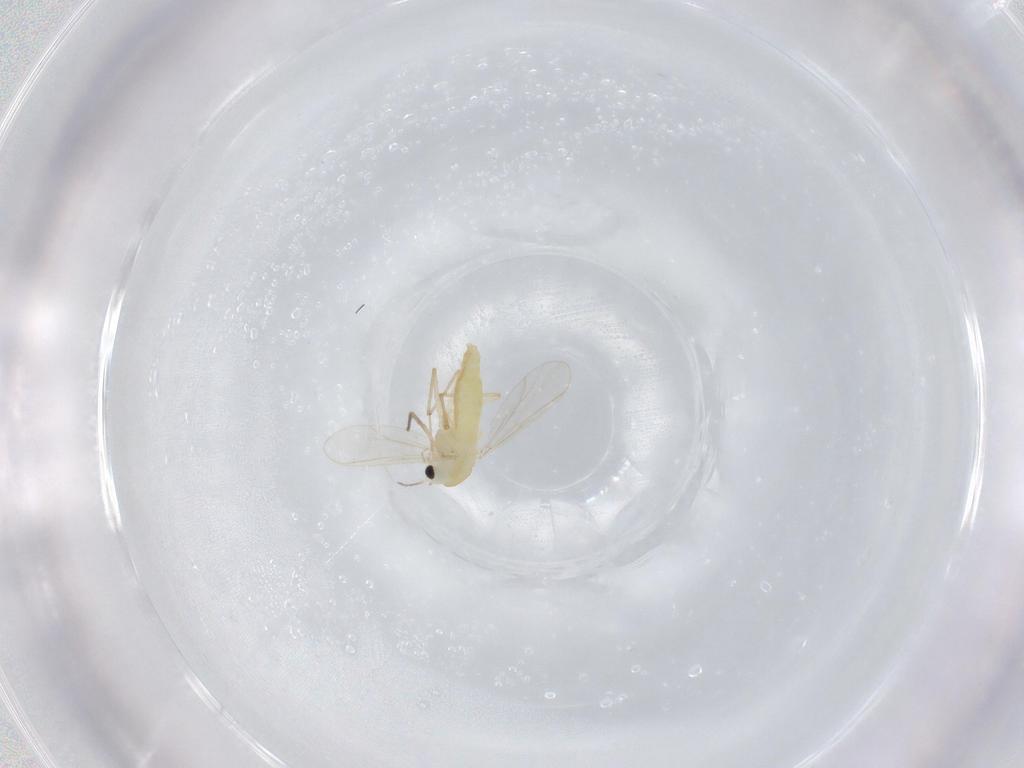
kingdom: Animalia
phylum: Arthropoda
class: Insecta
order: Diptera
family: Chironomidae
